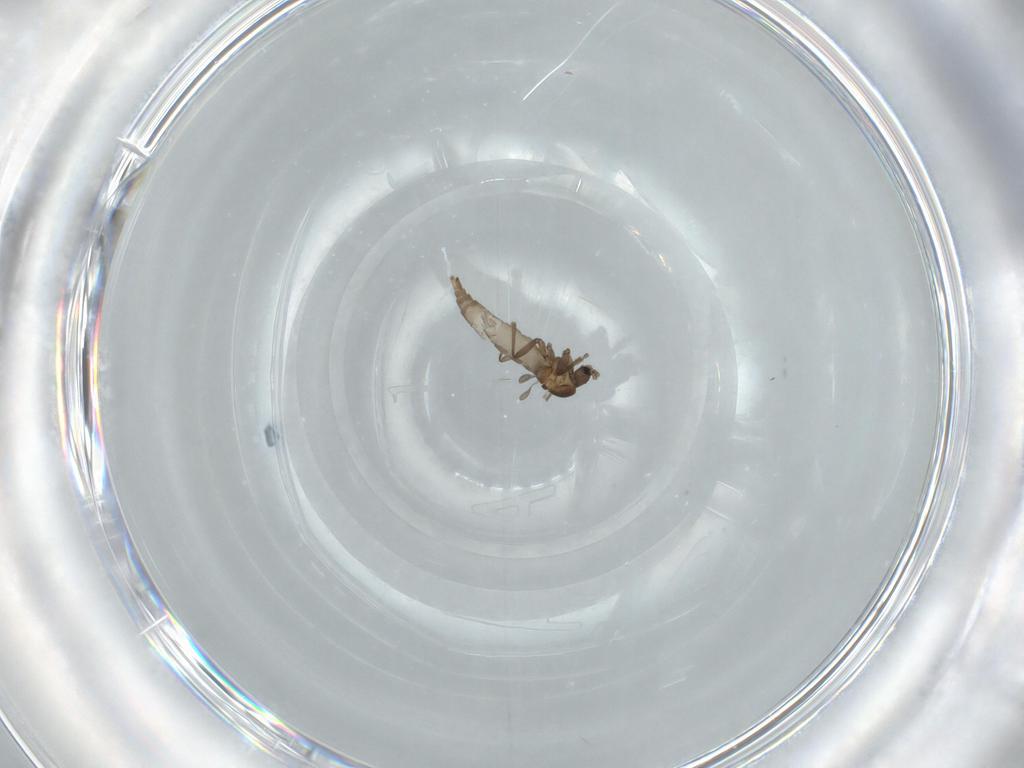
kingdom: Animalia
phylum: Arthropoda
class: Insecta
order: Diptera
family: Phoridae
